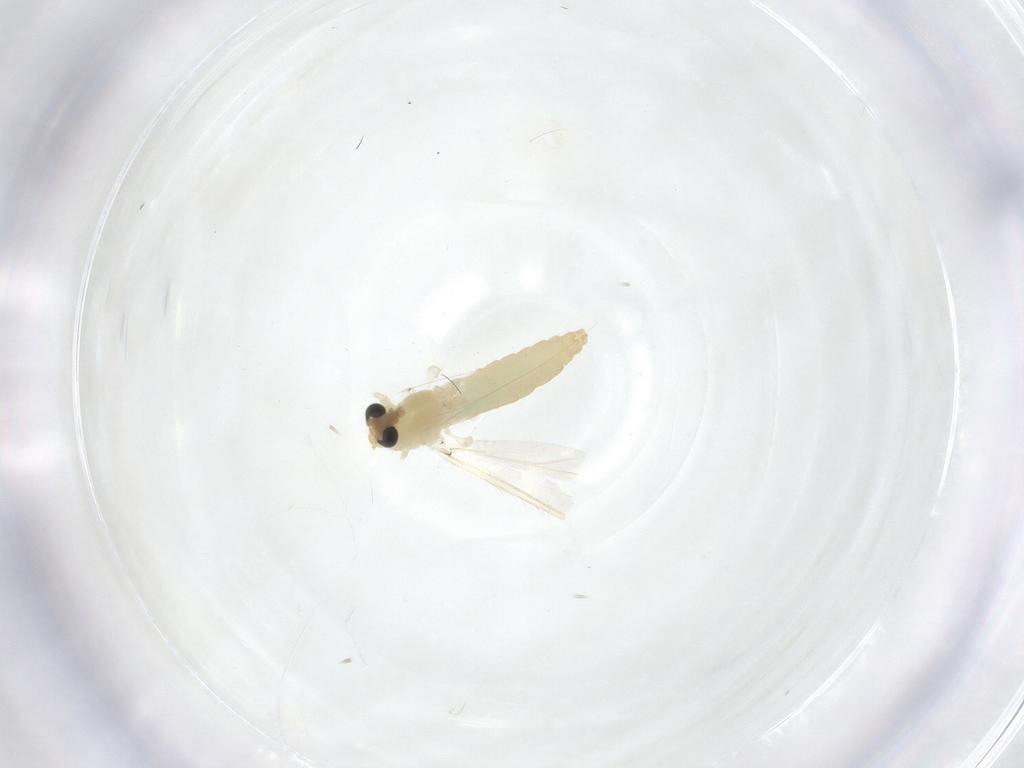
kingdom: Animalia
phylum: Arthropoda
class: Insecta
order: Diptera
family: Chironomidae
